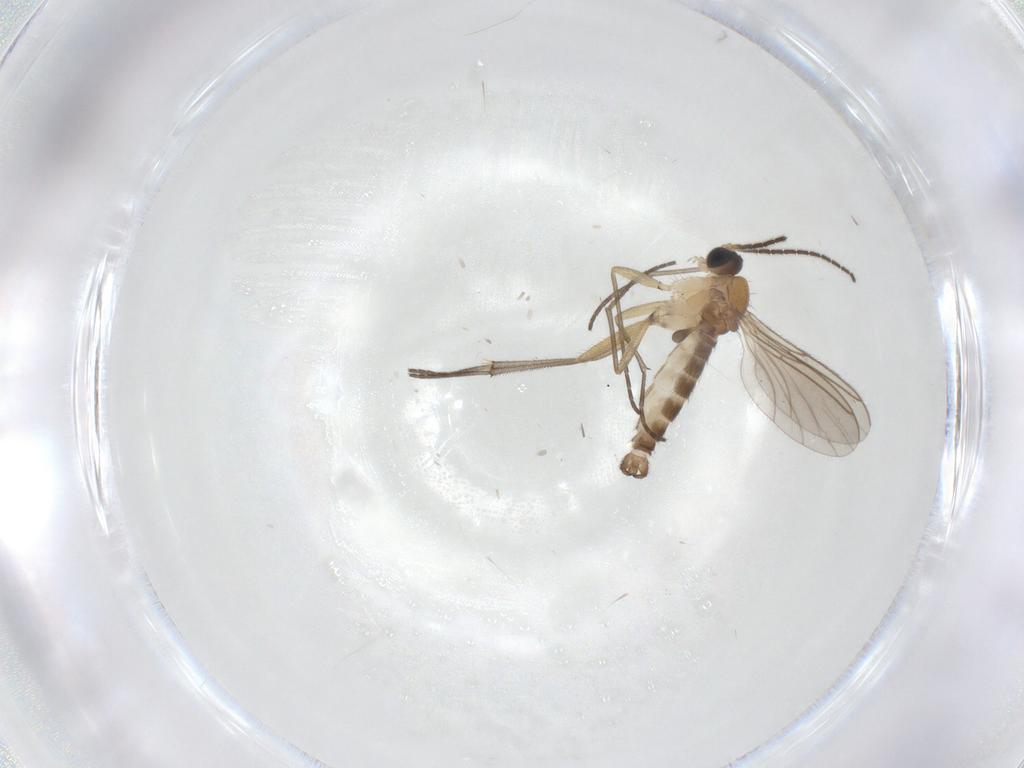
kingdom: Animalia
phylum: Arthropoda
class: Insecta
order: Diptera
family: Sciaridae
